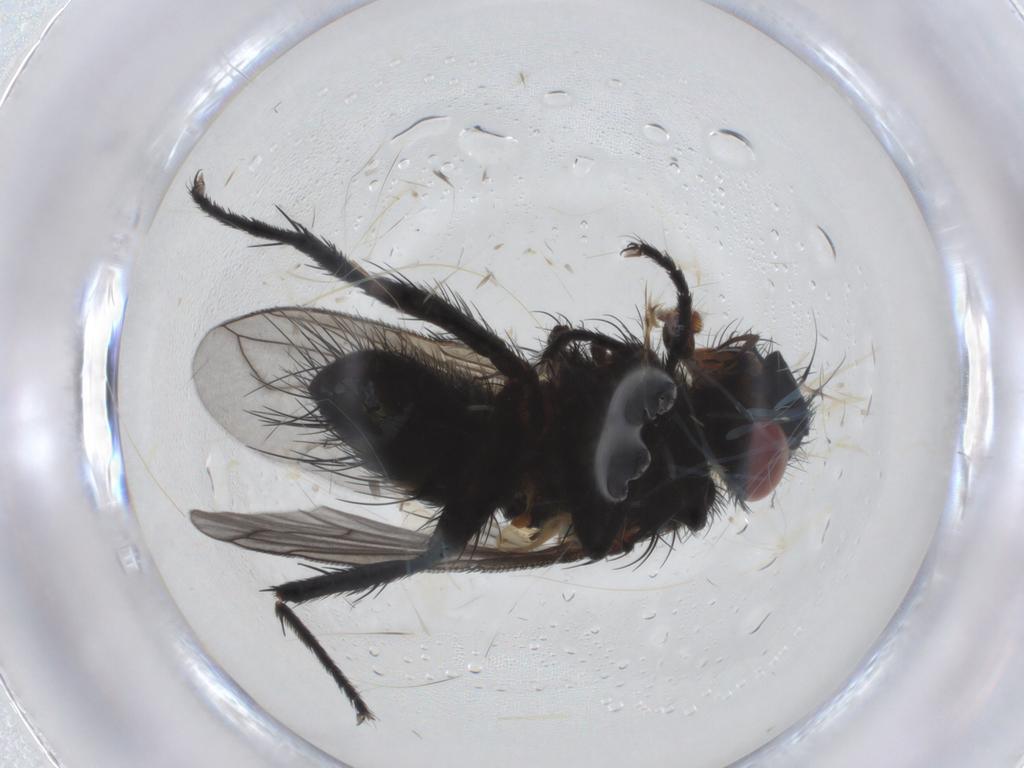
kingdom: Animalia
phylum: Arthropoda
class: Insecta
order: Diptera
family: Tachinidae
